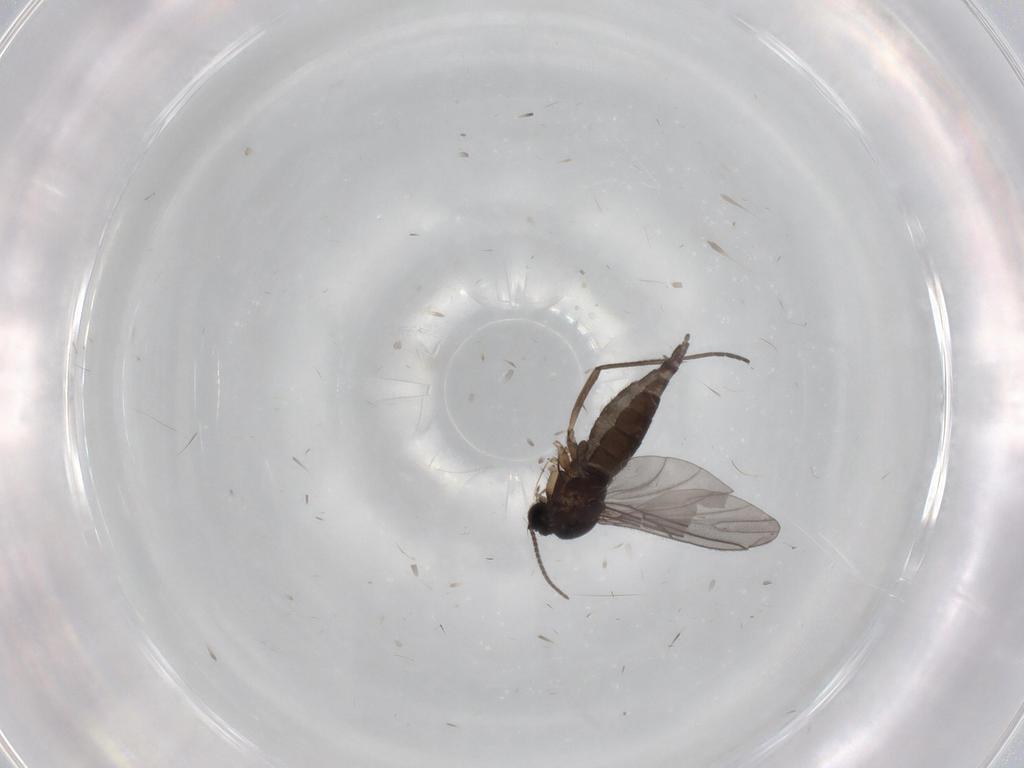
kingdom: Animalia
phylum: Arthropoda
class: Insecta
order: Diptera
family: Sciaridae
